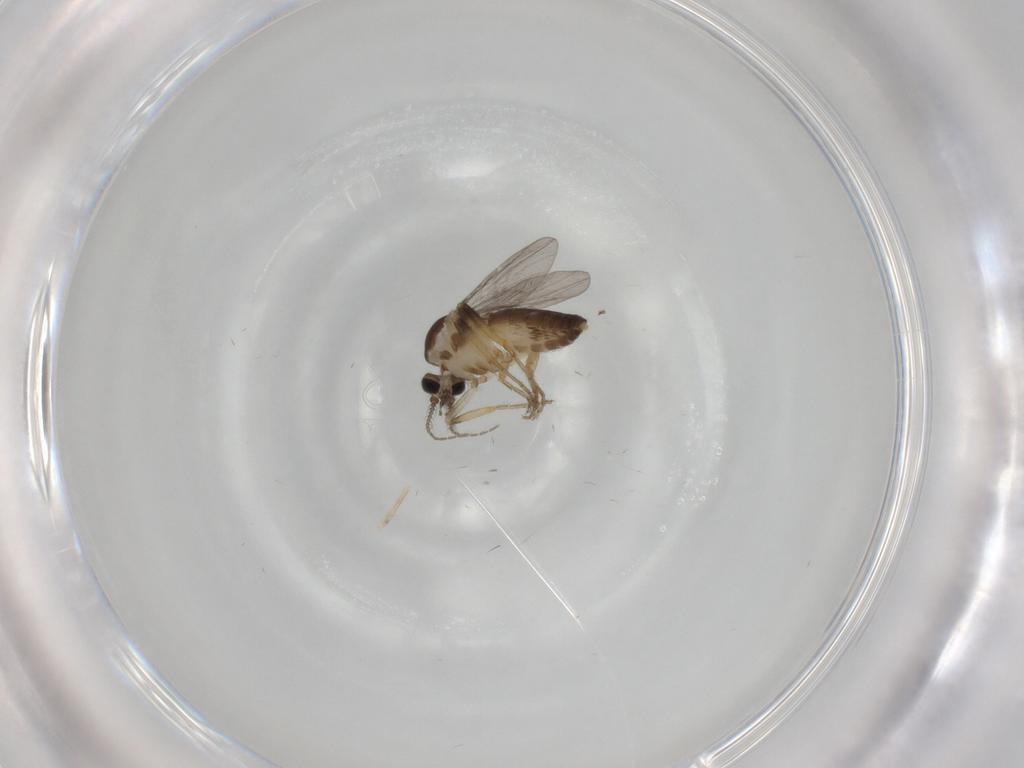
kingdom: Animalia
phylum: Arthropoda
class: Insecta
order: Diptera
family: Ceratopogonidae
